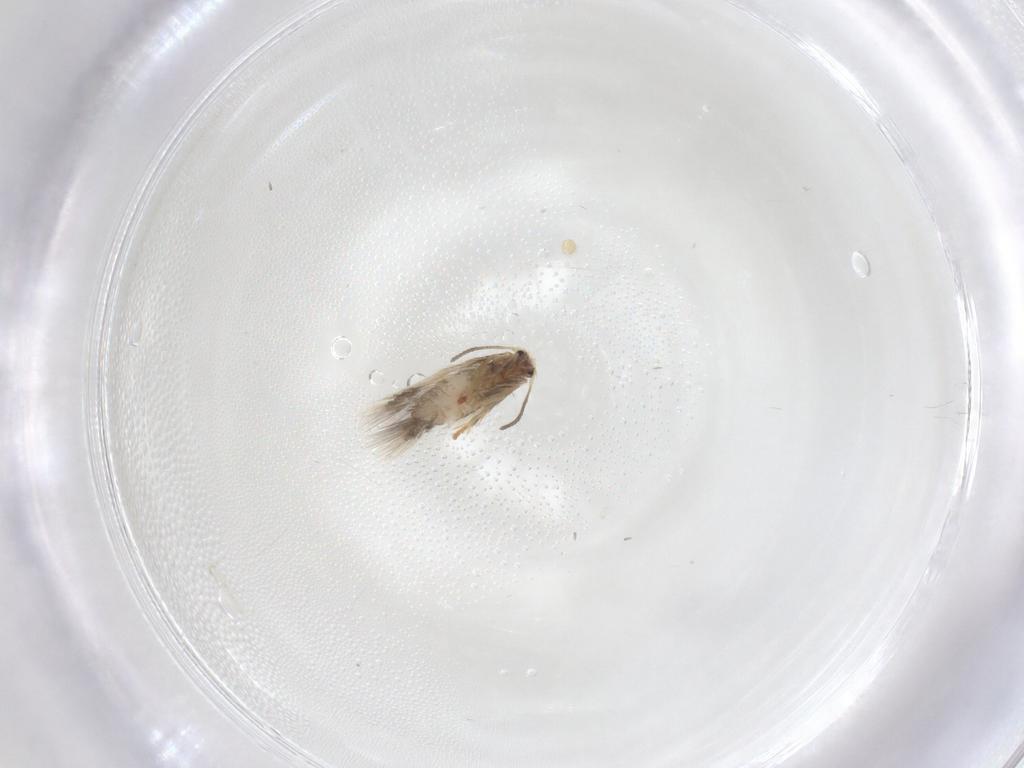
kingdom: Animalia
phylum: Arthropoda
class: Insecta
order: Lepidoptera
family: Nepticulidae
